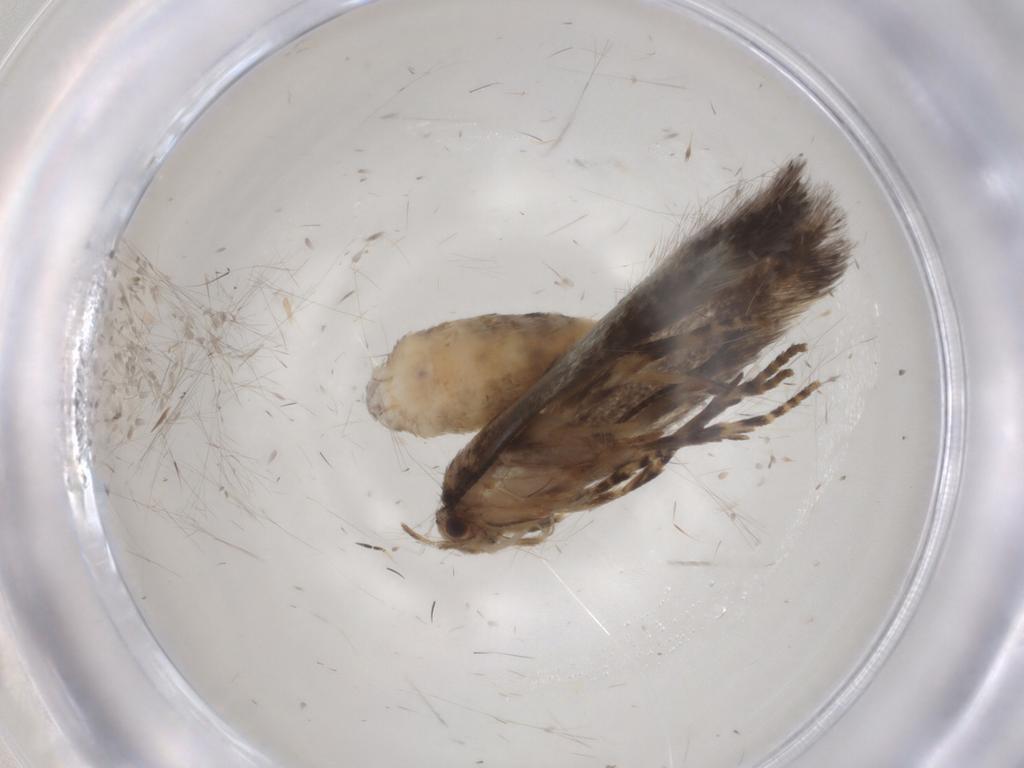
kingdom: Animalia
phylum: Arthropoda
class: Insecta
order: Lepidoptera
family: Elachistidae
